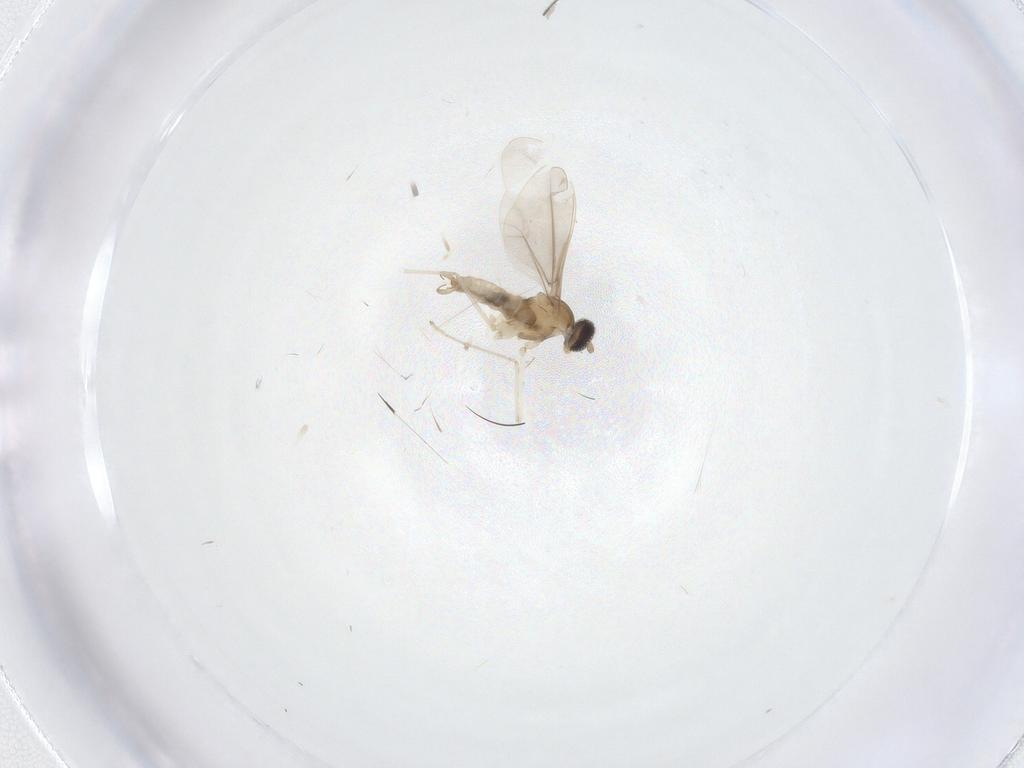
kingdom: Animalia
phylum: Arthropoda
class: Insecta
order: Diptera
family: Cecidomyiidae
